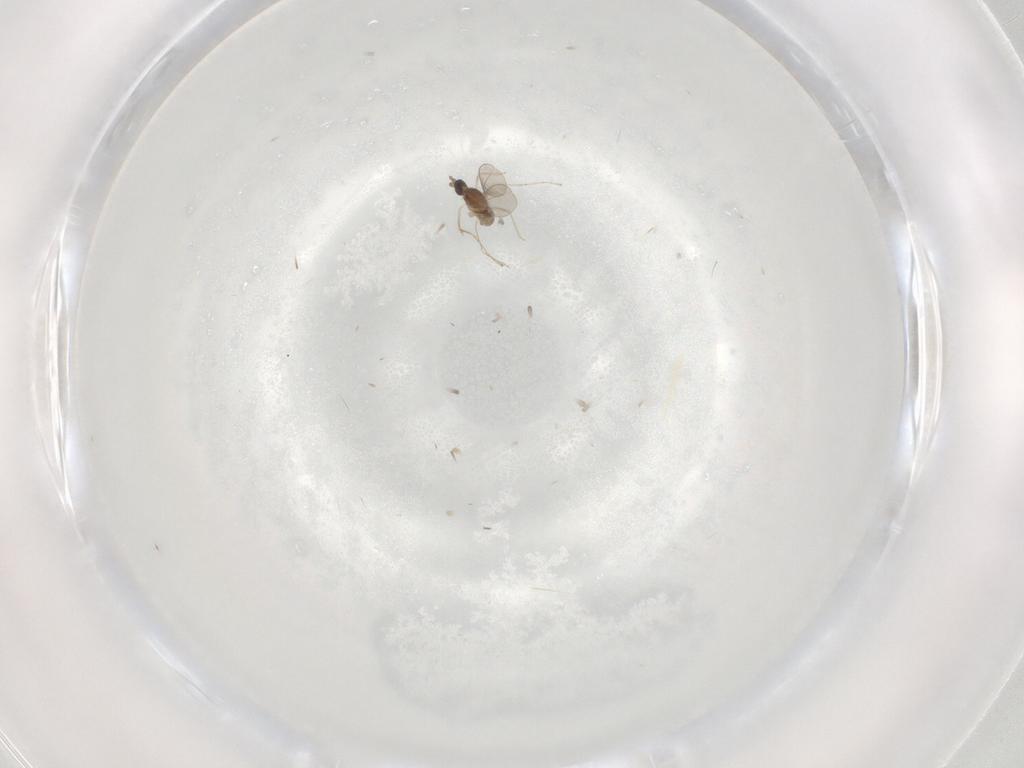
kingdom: Animalia
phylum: Arthropoda
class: Insecta
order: Diptera
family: Cecidomyiidae
